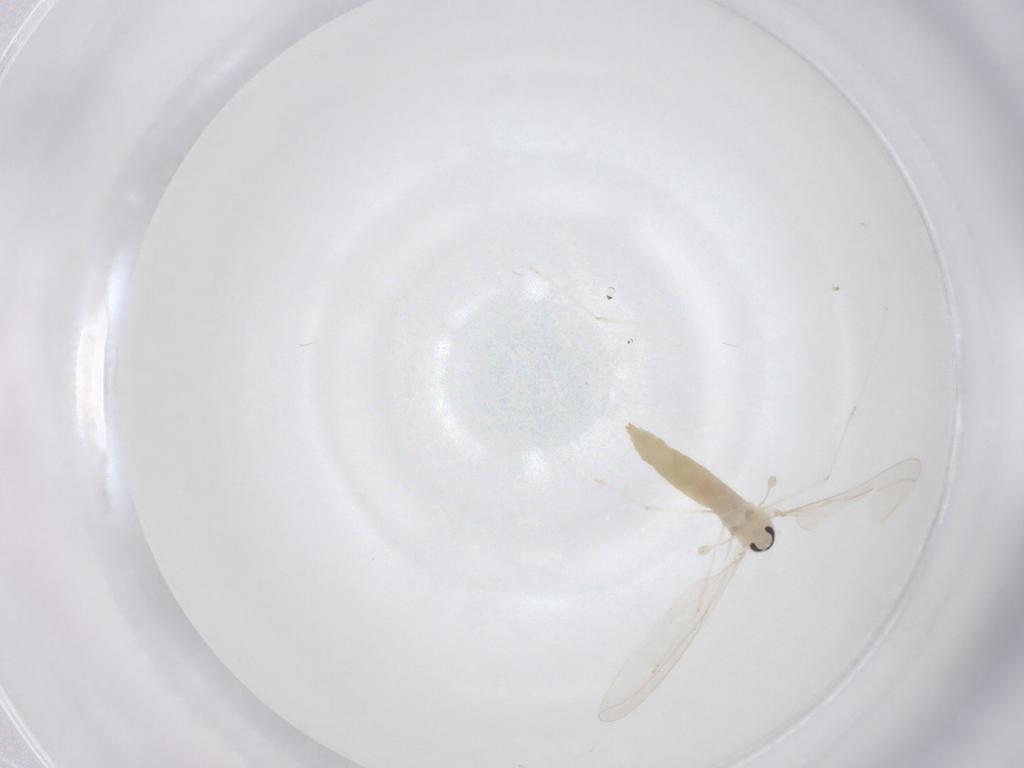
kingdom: Animalia
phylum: Arthropoda
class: Insecta
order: Diptera
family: Cecidomyiidae
